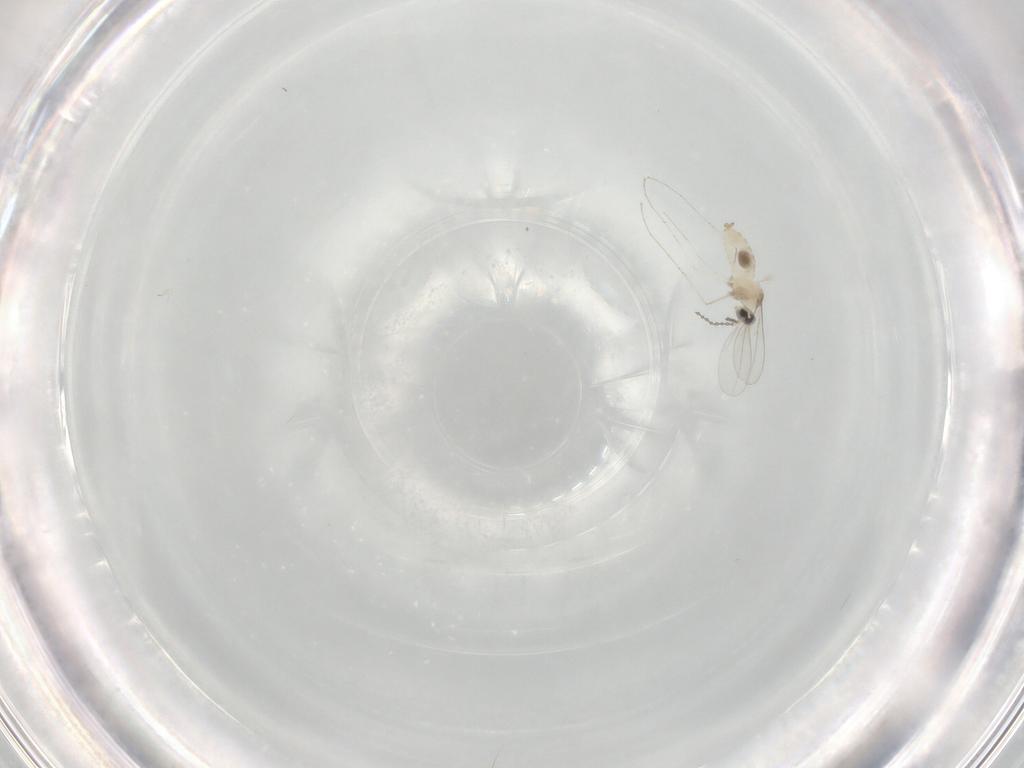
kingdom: Animalia
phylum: Arthropoda
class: Insecta
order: Diptera
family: Cecidomyiidae
